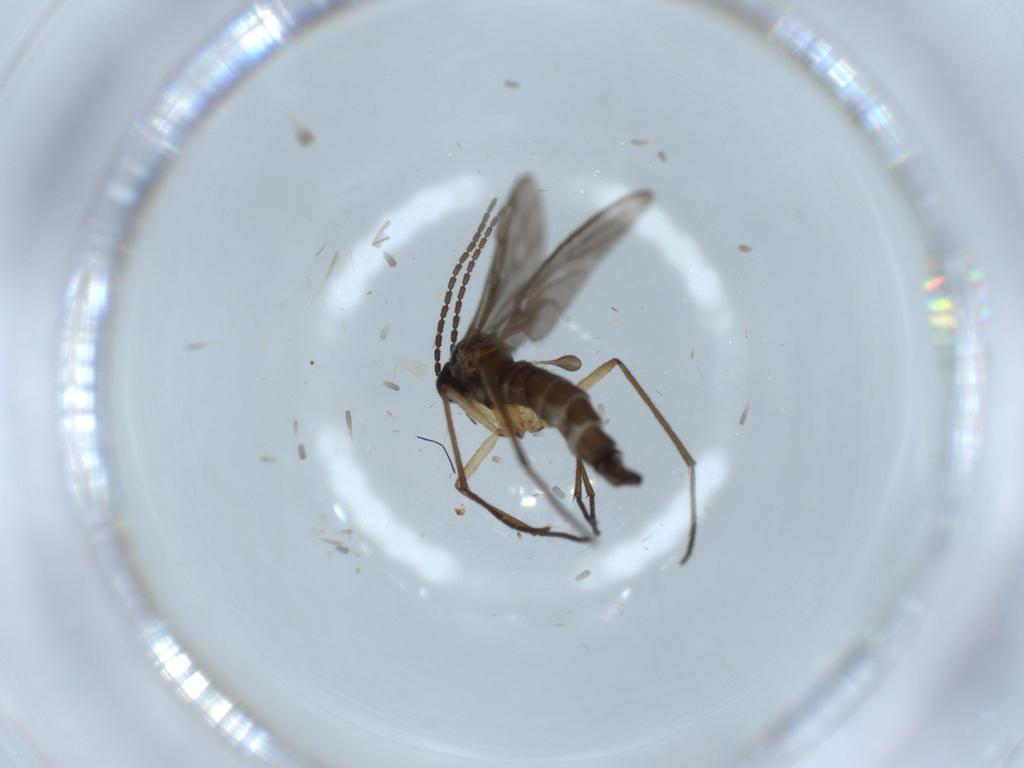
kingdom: Animalia
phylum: Arthropoda
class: Insecta
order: Diptera
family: Sciaridae
